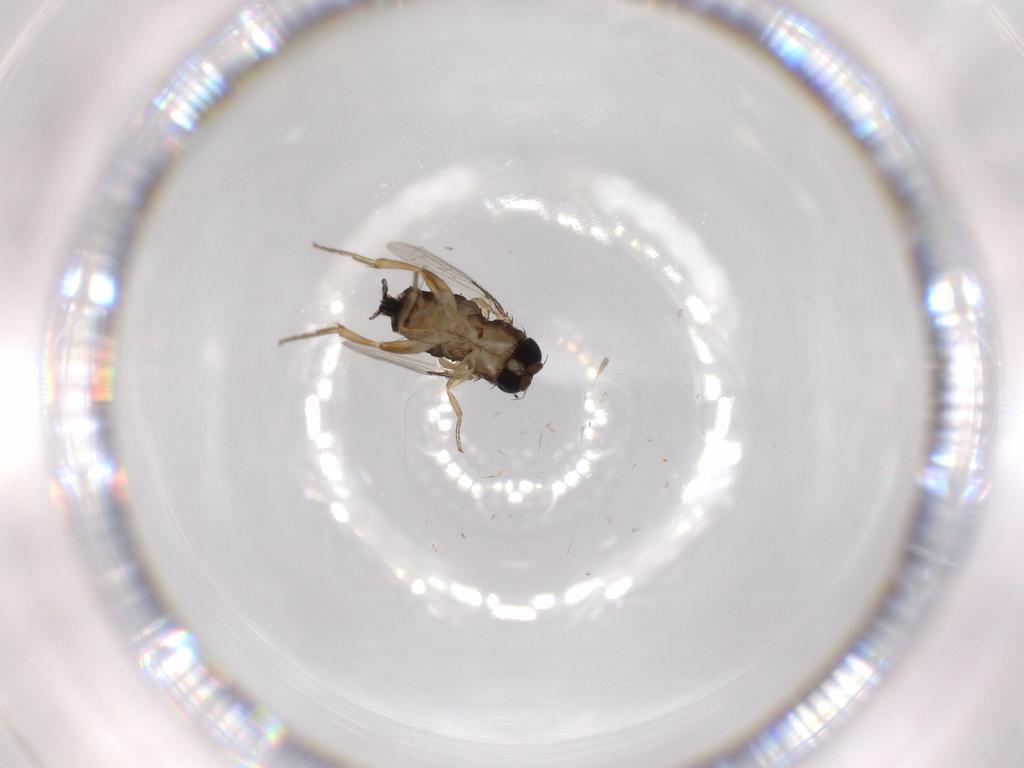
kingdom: Animalia
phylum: Arthropoda
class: Insecta
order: Diptera
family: Phoridae
